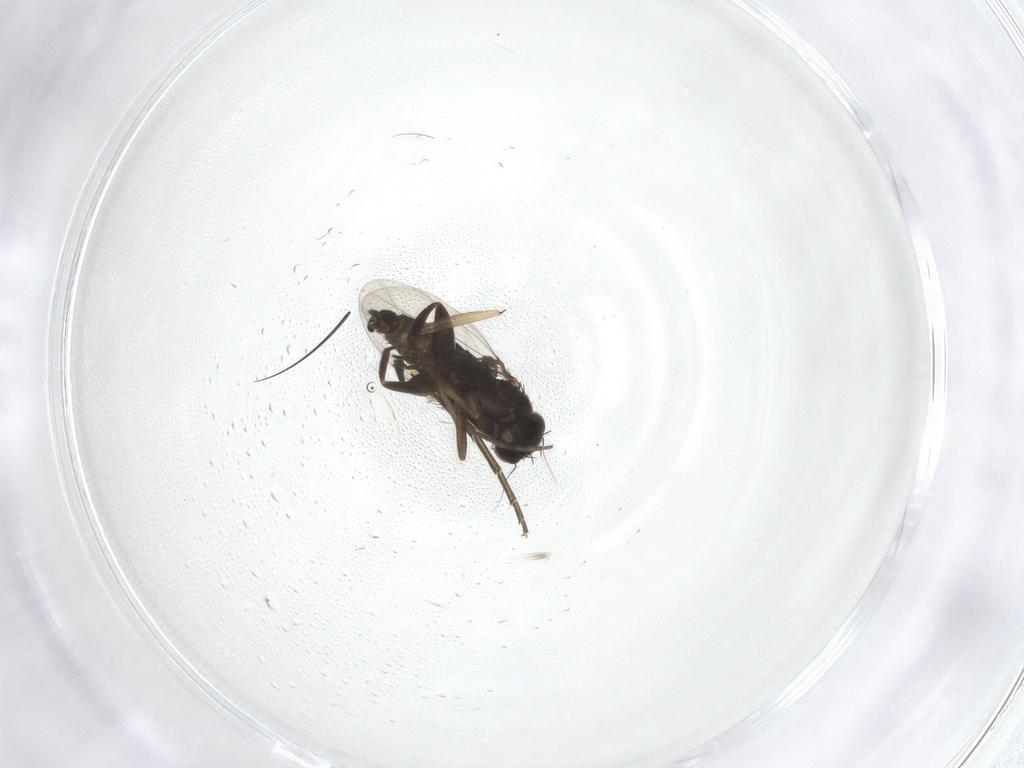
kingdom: Animalia
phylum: Arthropoda
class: Insecta
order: Diptera
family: Phoridae
